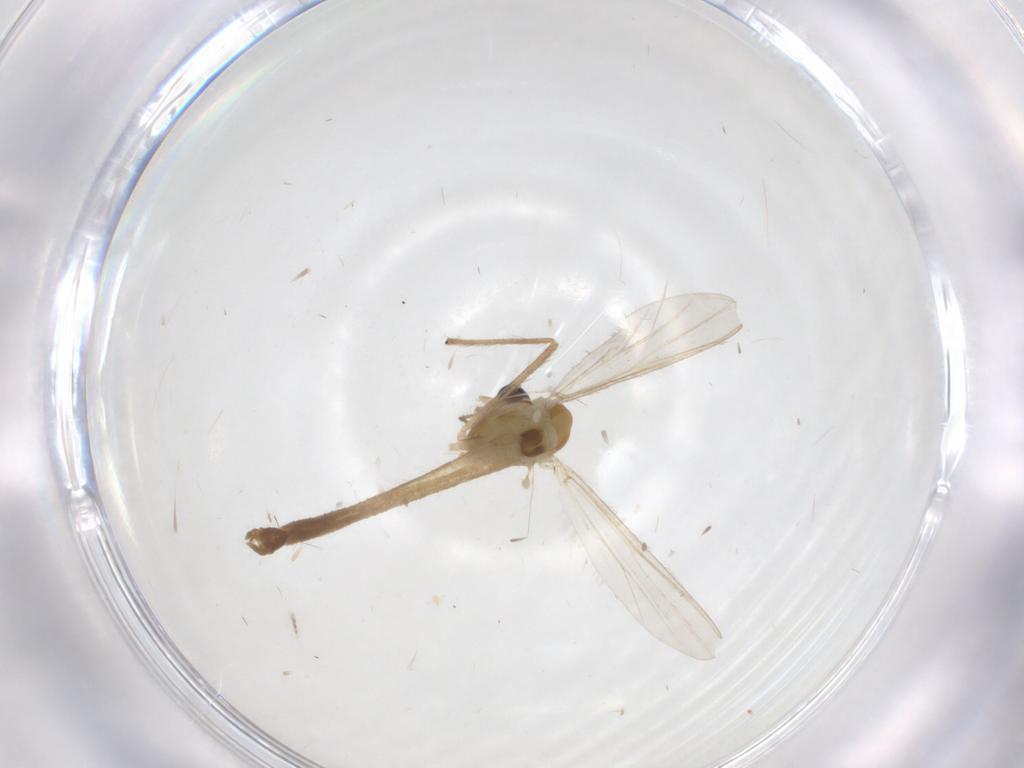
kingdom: Animalia
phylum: Arthropoda
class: Insecta
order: Diptera
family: Chironomidae
